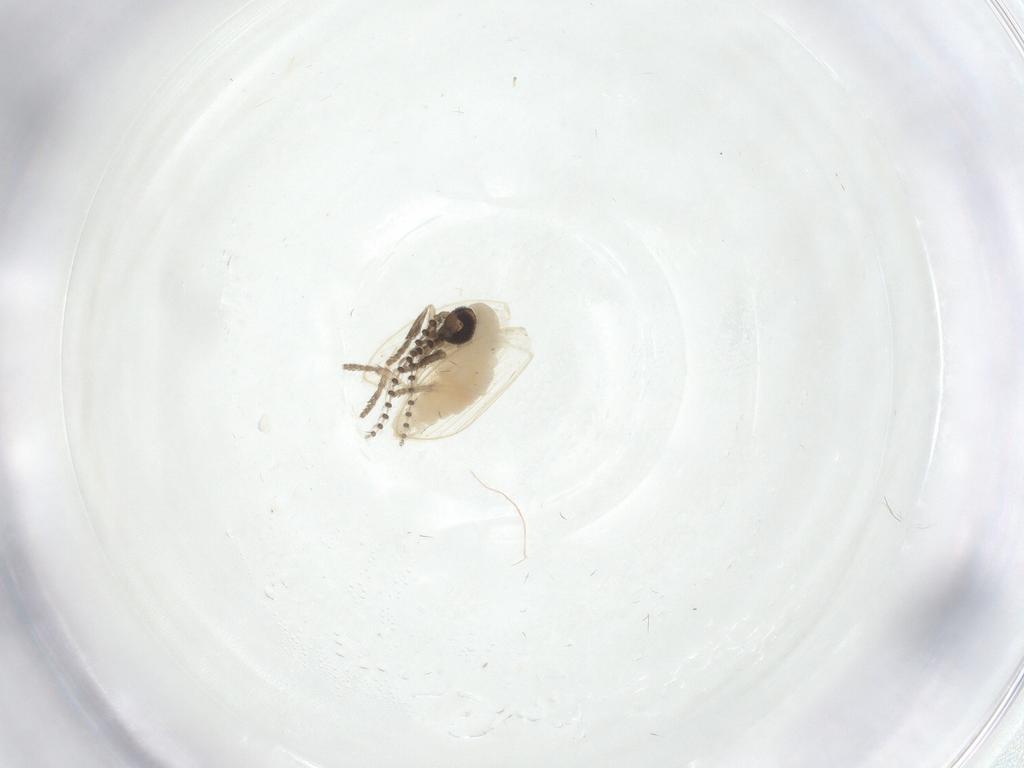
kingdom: Animalia
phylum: Arthropoda
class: Insecta
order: Diptera
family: Psychodidae
